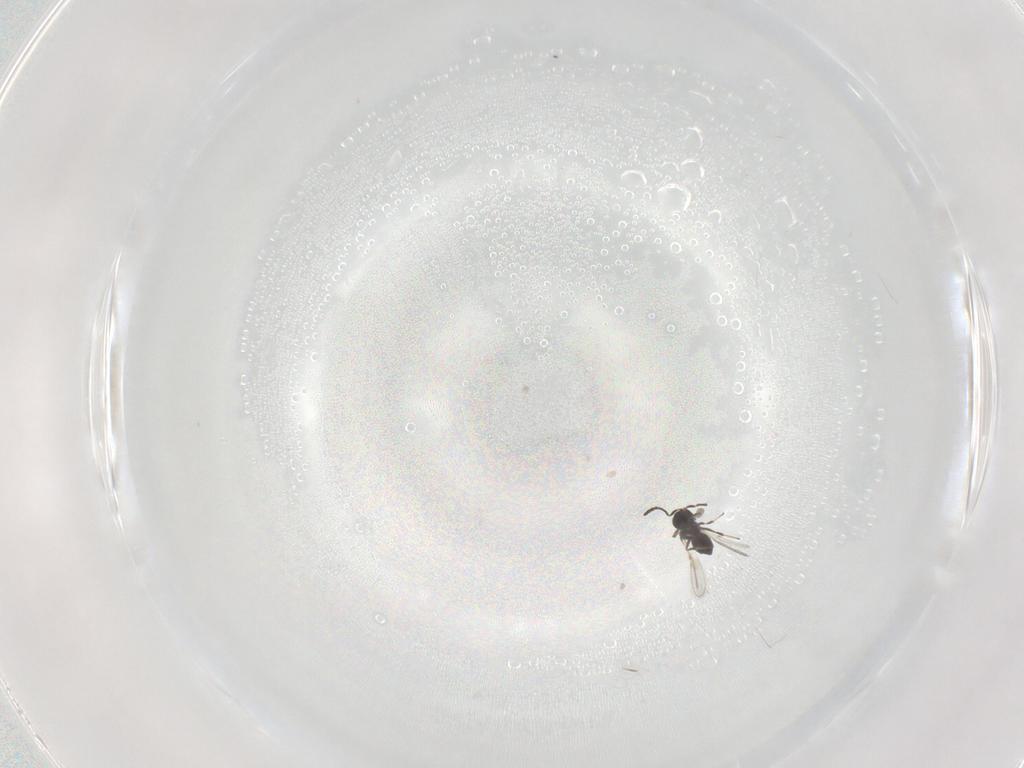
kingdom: Animalia
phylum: Arthropoda
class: Insecta
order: Hymenoptera
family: Scelionidae
